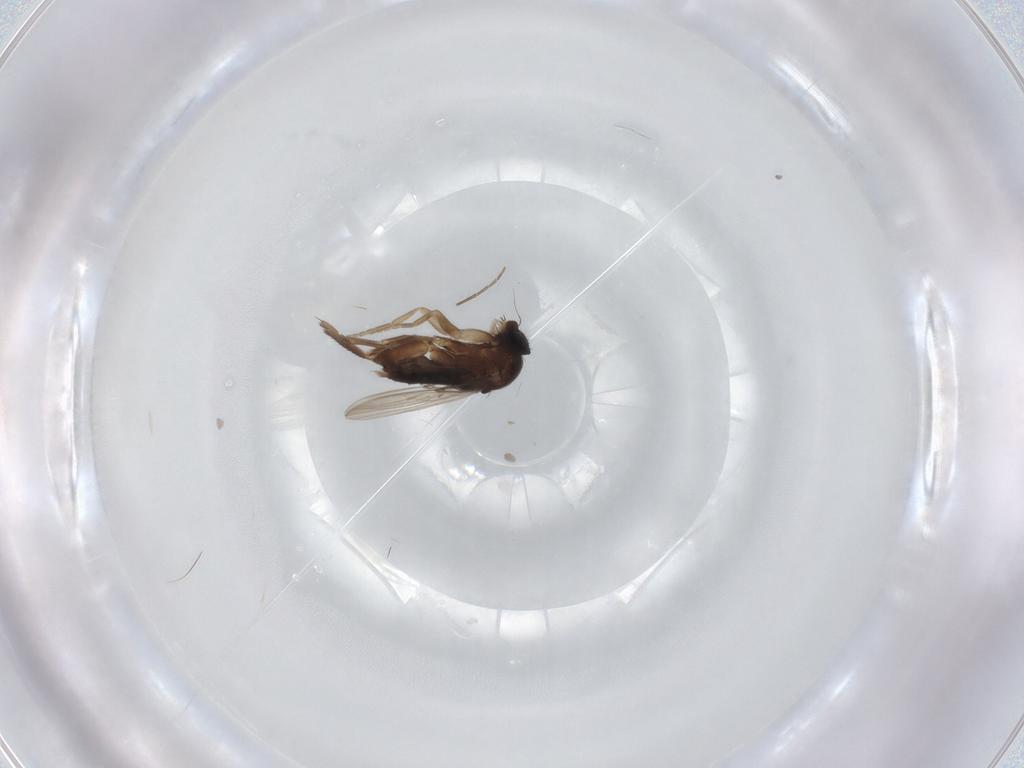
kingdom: Animalia
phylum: Arthropoda
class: Insecta
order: Diptera
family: Phoridae
